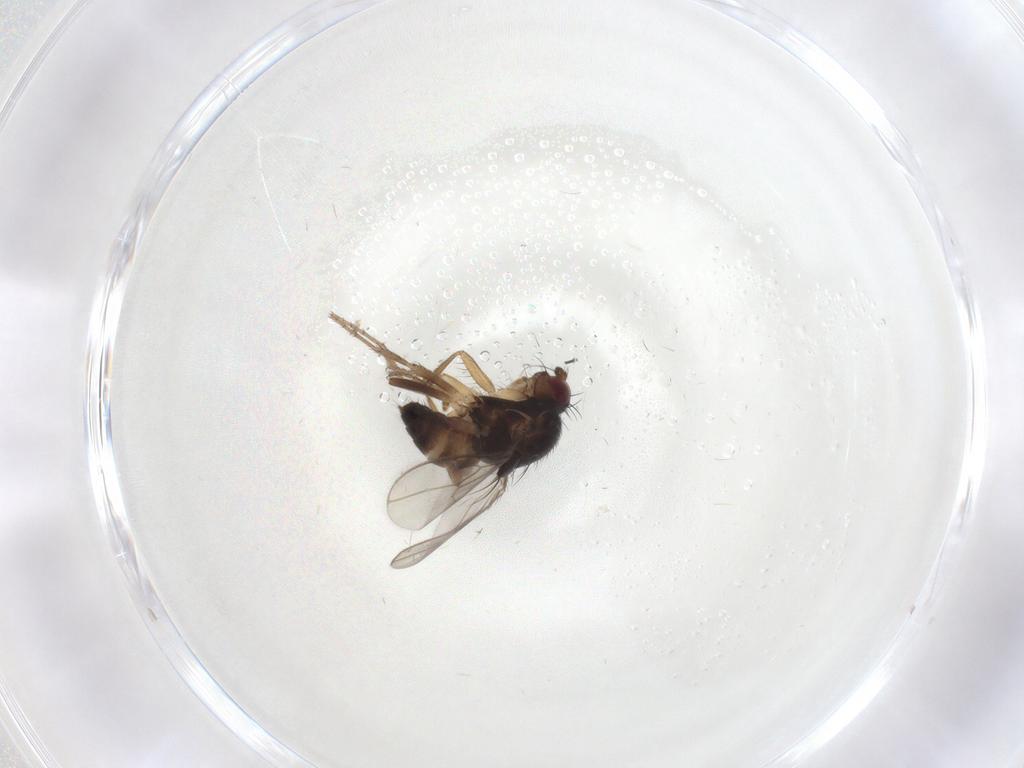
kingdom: Animalia
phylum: Arthropoda
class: Insecta
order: Diptera
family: Sphaeroceridae
